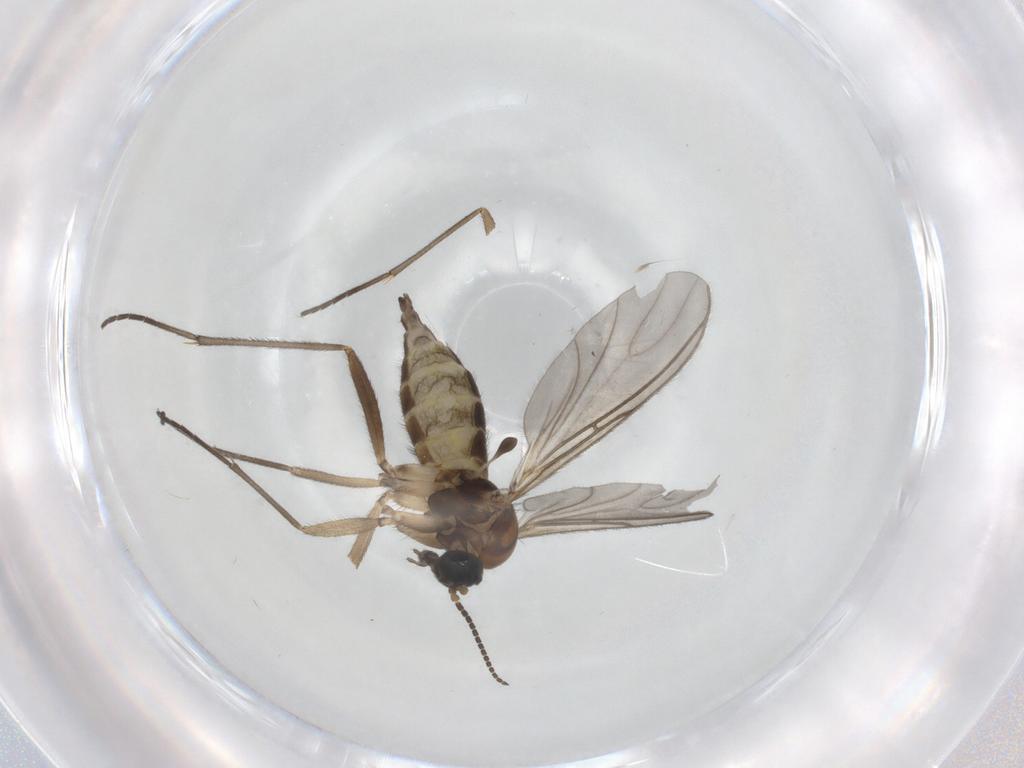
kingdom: Animalia
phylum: Arthropoda
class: Insecta
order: Diptera
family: Sciaridae
